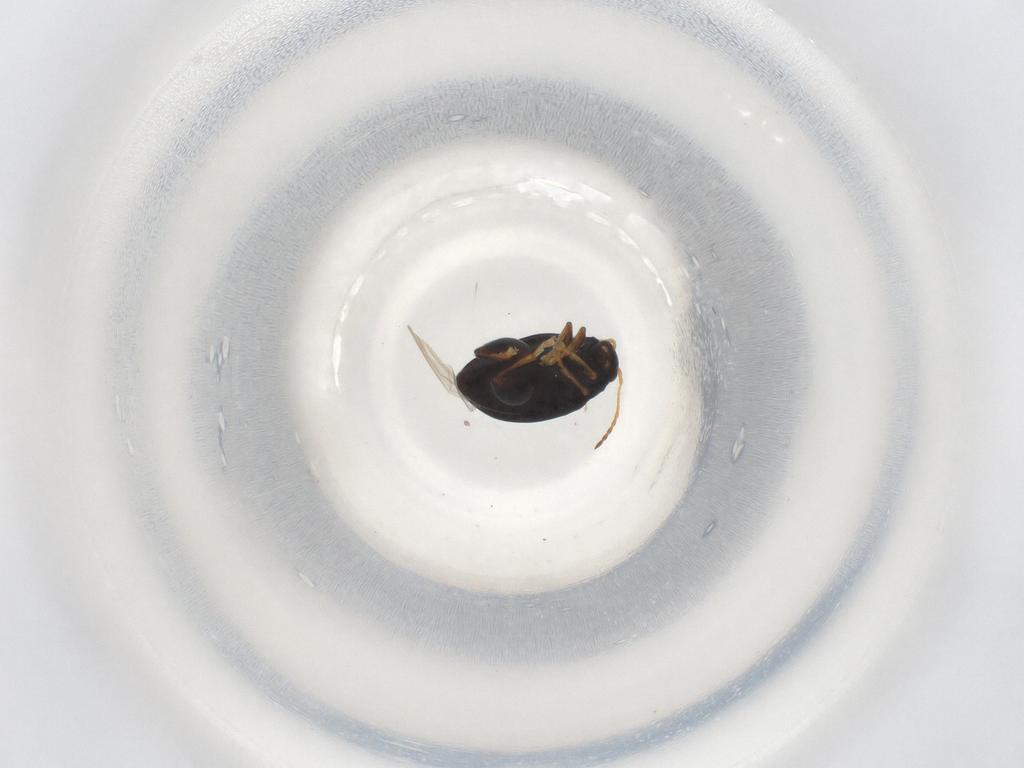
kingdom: Animalia
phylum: Arthropoda
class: Insecta
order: Coleoptera
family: Chrysomelidae
